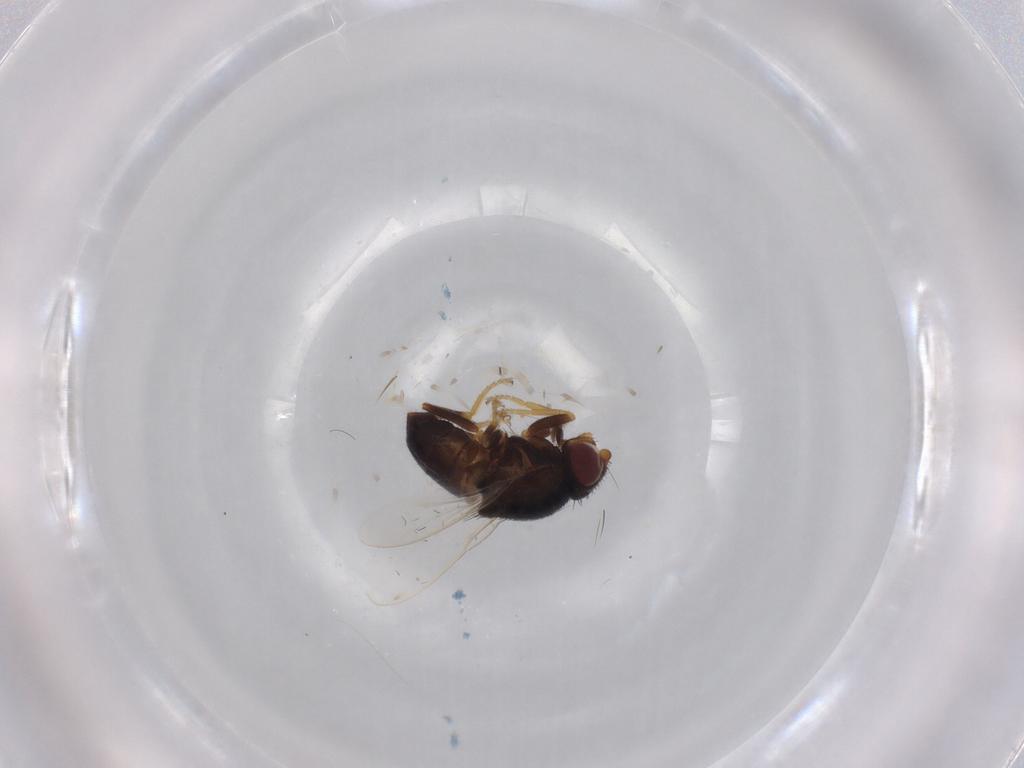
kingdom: Animalia
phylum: Arthropoda
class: Insecta
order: Diptera
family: Chloropidae
